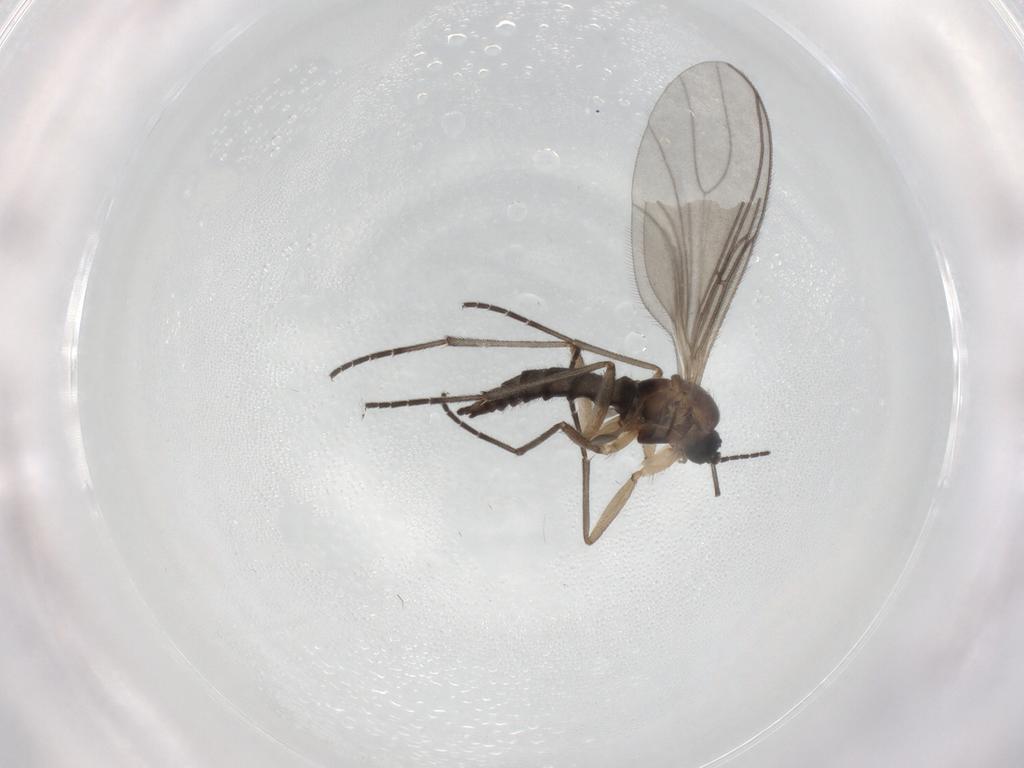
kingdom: Animalia
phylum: Arthropoda
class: Insecta
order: Diptera
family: Sciaridae
